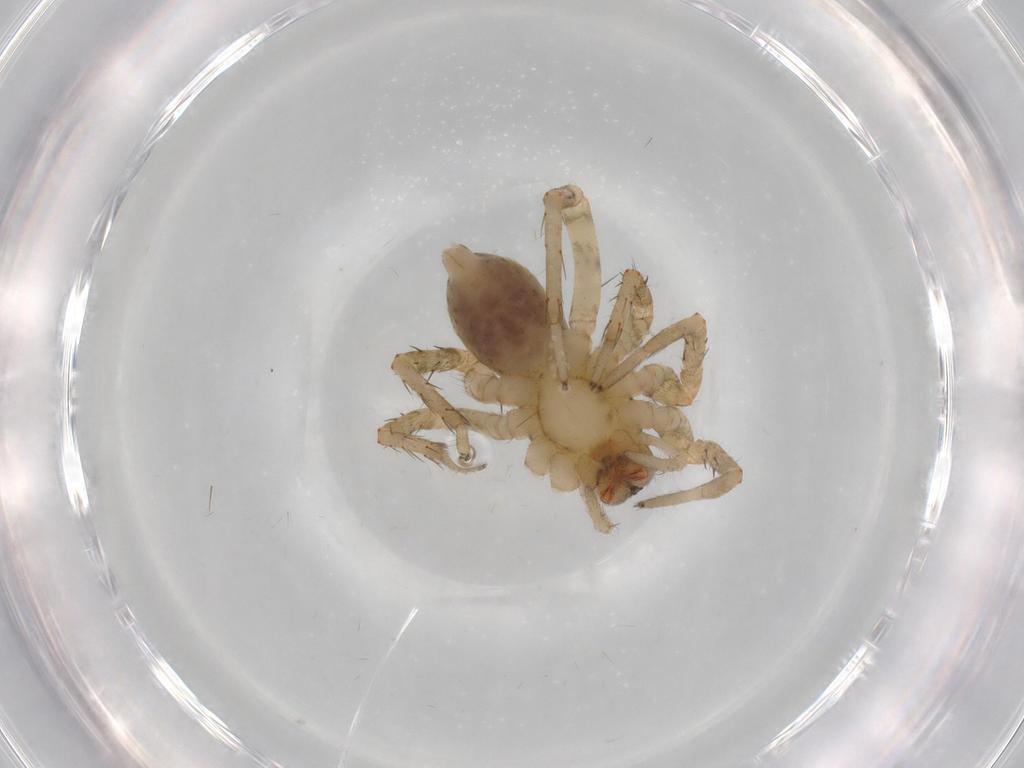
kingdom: Animalia
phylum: Arthropoda
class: Arachnida
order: Araneae
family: Anyphaenidae
